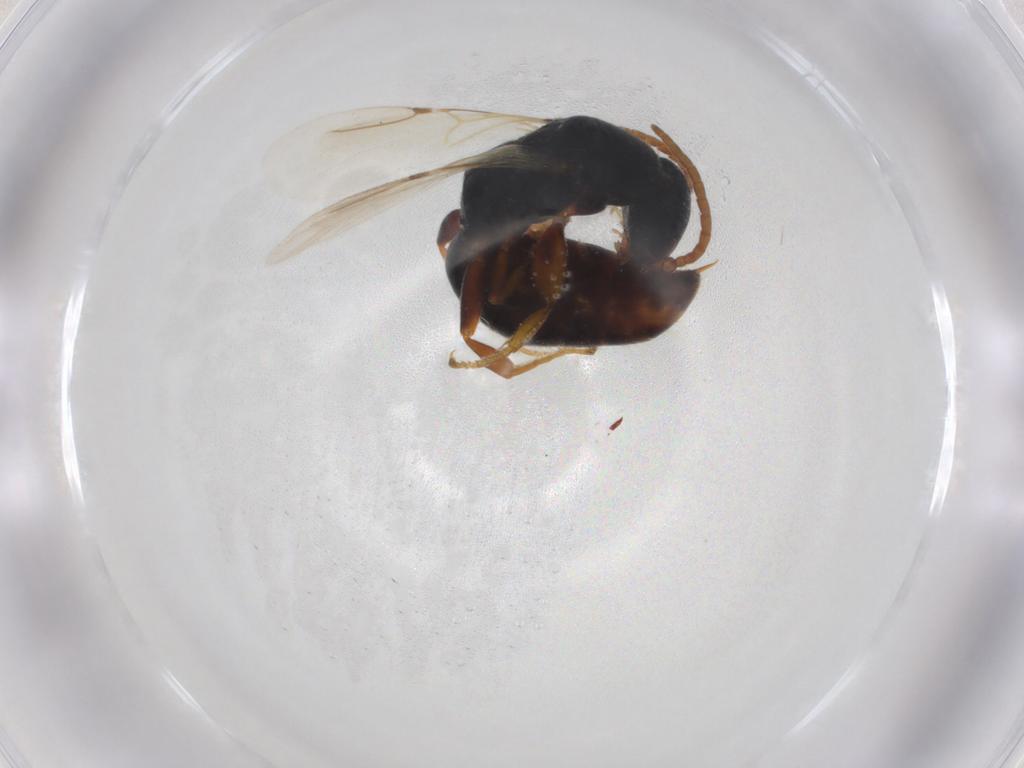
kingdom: Animalia
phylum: Arthropoda
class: Insecta
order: Hymenoptera
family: Bethylidae
